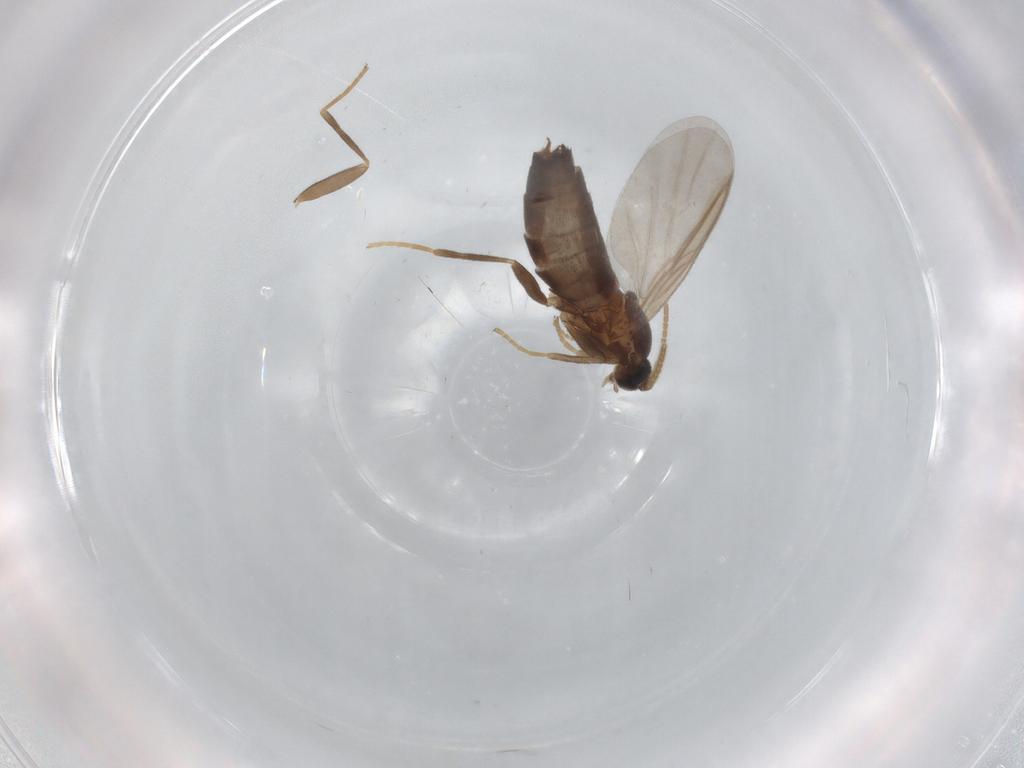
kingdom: Animalia
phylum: Arthropoda
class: Insecta
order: Diptera
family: Scatopsidae
